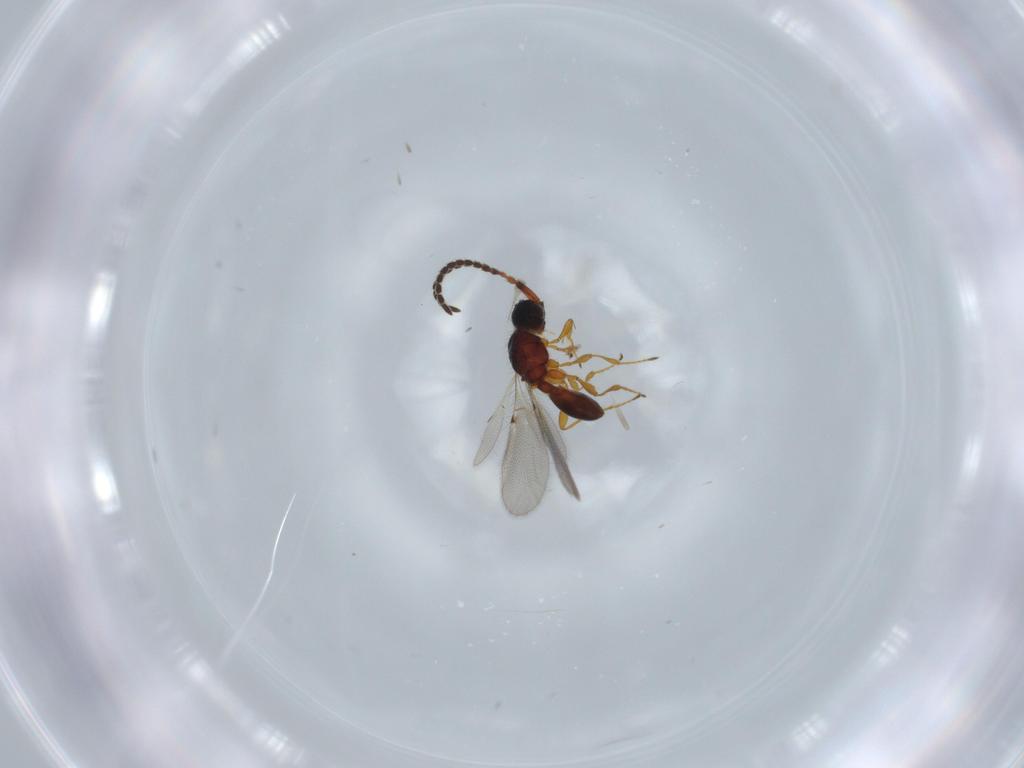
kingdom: Animalia
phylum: Arthropoda
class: Insecta
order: Hymenoptera
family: Diapriidae
